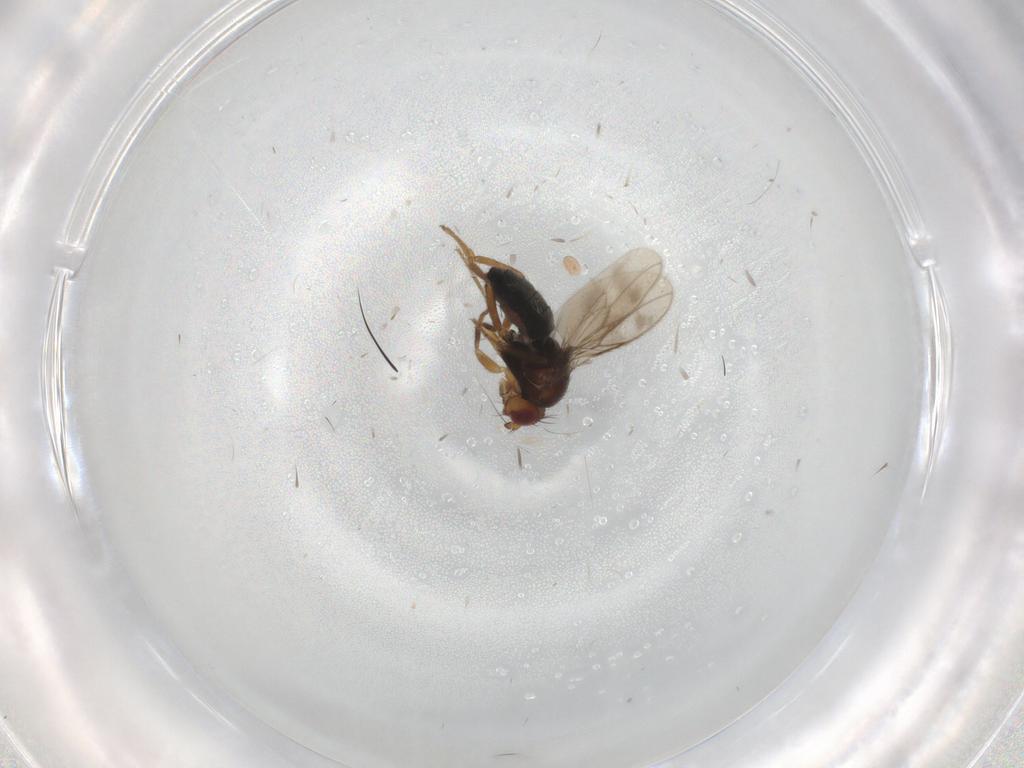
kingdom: Animalia
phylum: Arthropoda
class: Insecta
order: Diptera
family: Sphaeroceridae
